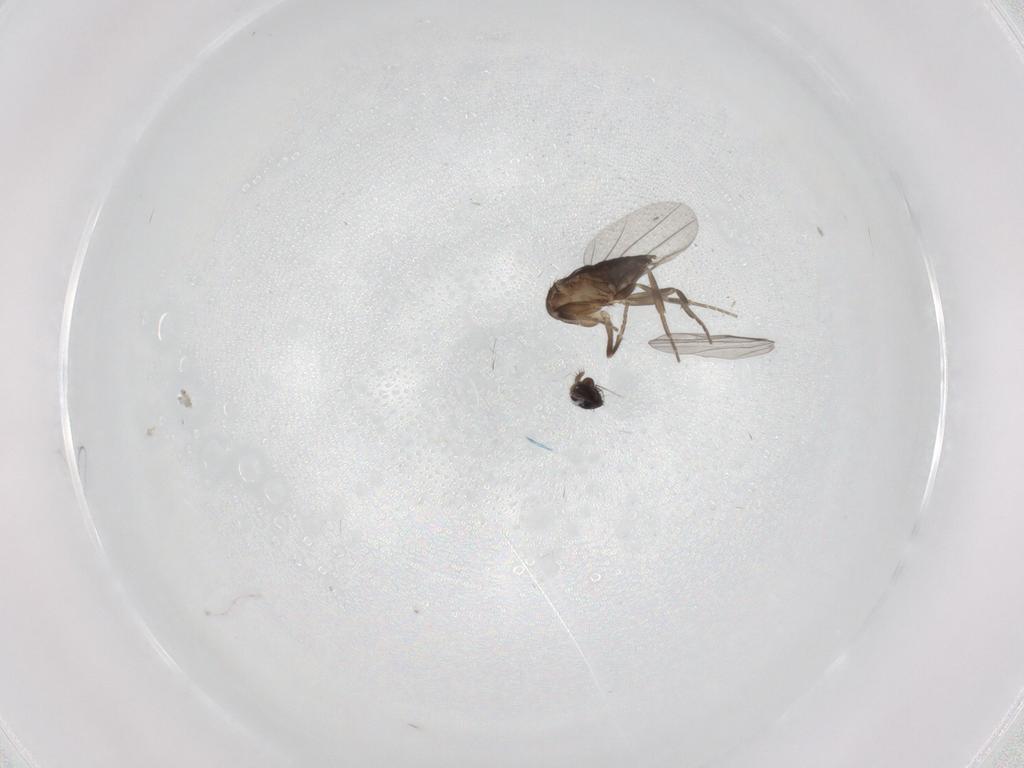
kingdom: Animalia
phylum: Arthropoda
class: Insecta
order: Diptera
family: Phoridae
